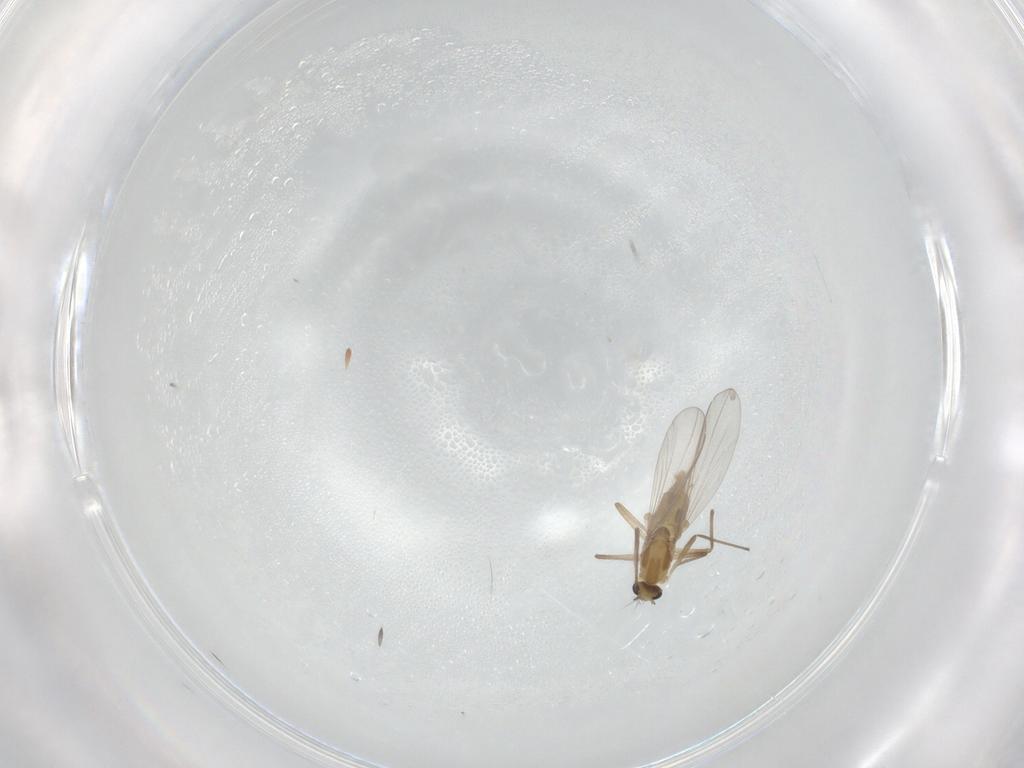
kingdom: Animalia
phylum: Arthropoda
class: Insecta
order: Diptera
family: Chironomidae
